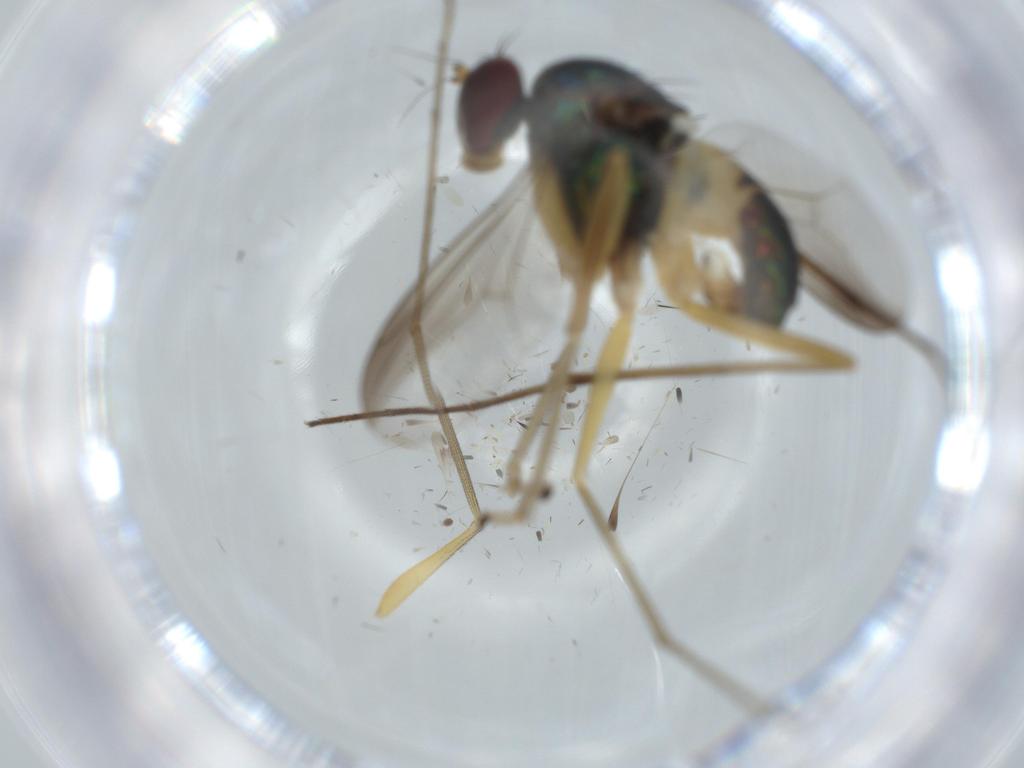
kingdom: Animalia
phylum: Arthropoda
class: Insecta
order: Diptera
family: Dolichopodidae
